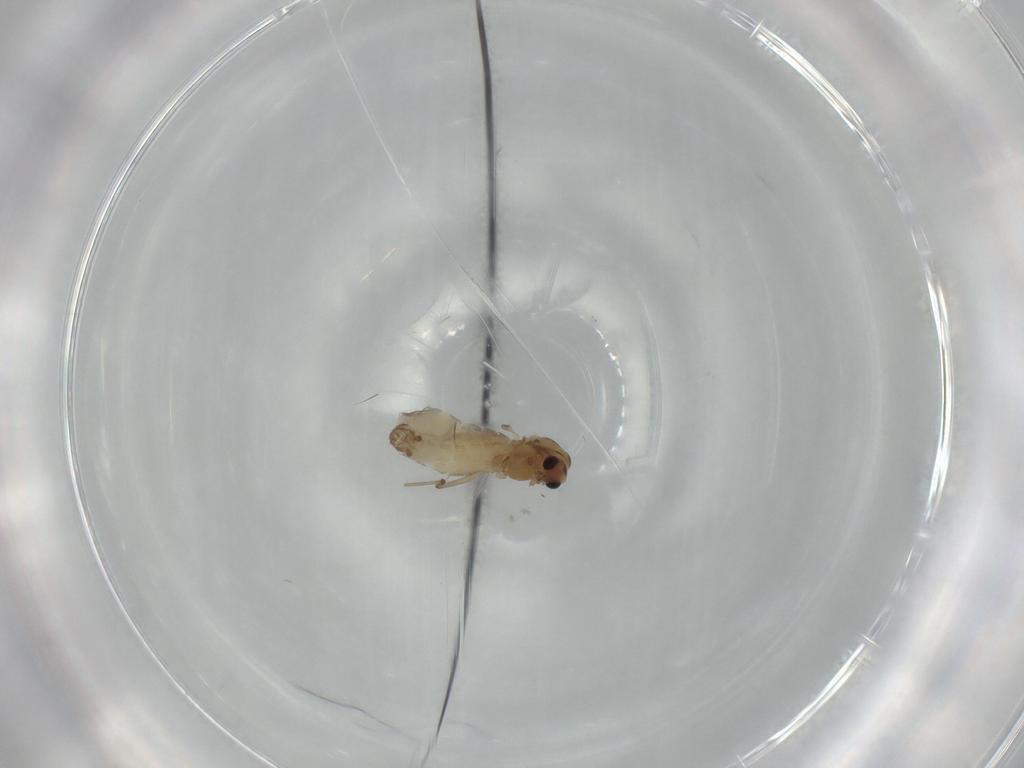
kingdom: Animalia
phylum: Arthropoda
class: Insecta
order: Diptera
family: Chironomidae
